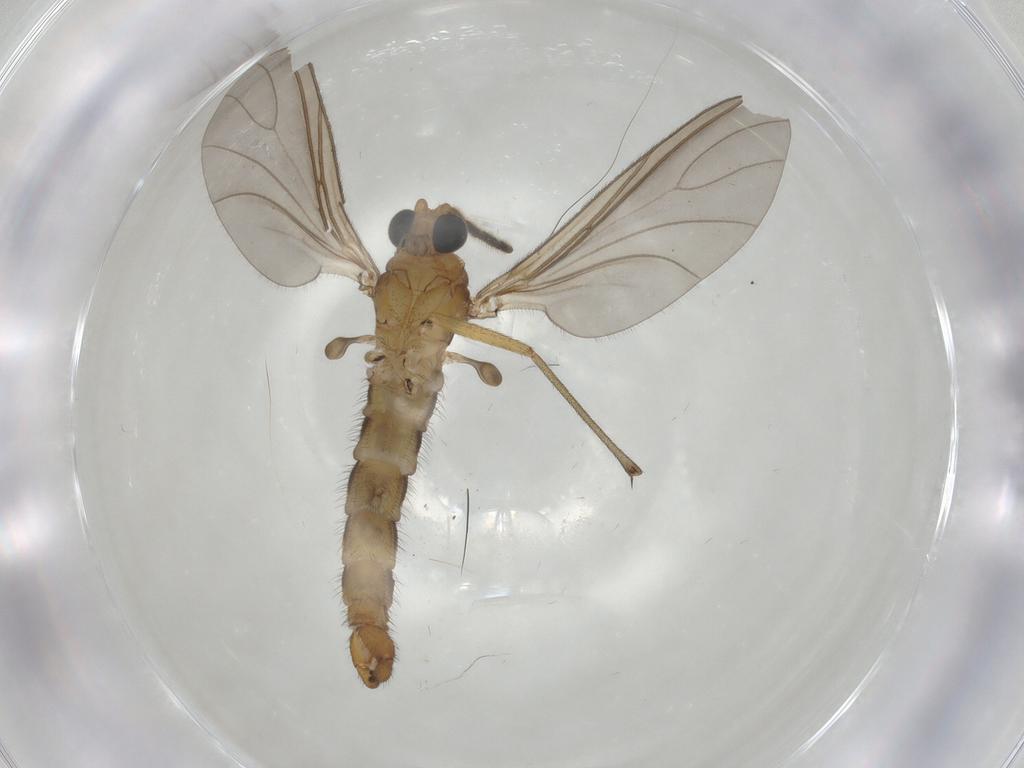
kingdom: Animalia
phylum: Arthropoda
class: Insecta
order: Diptera
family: Sciaridae
